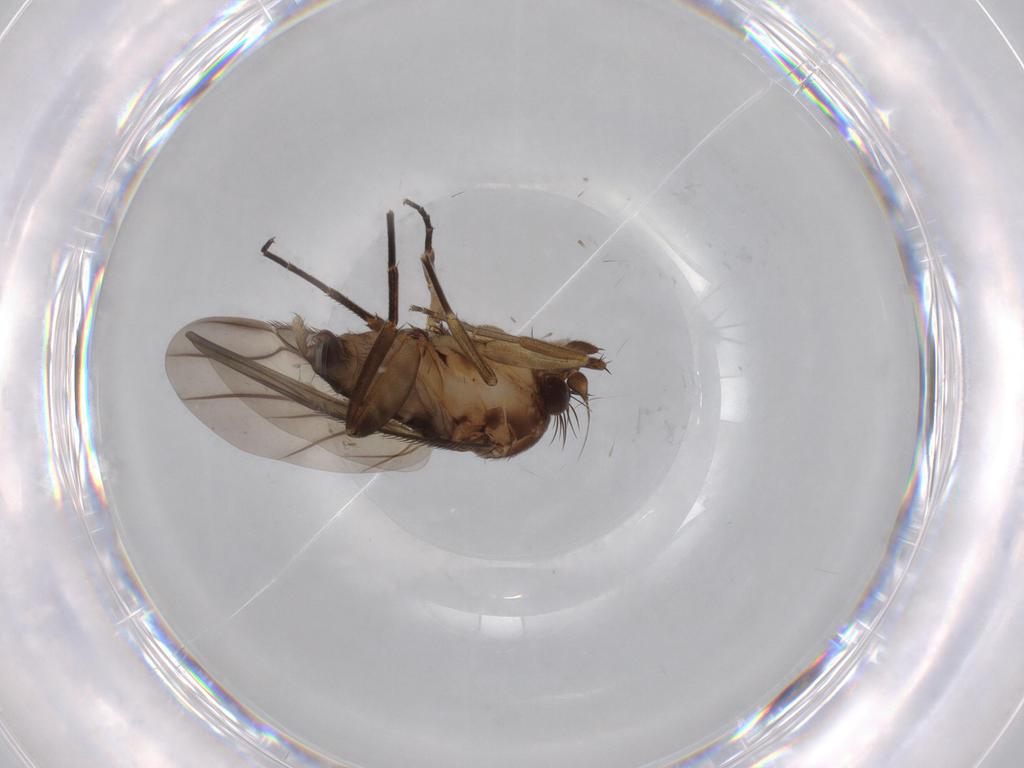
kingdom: Animalia
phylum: Arthropoda
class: Insecta
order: Diptera
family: Phoridae
